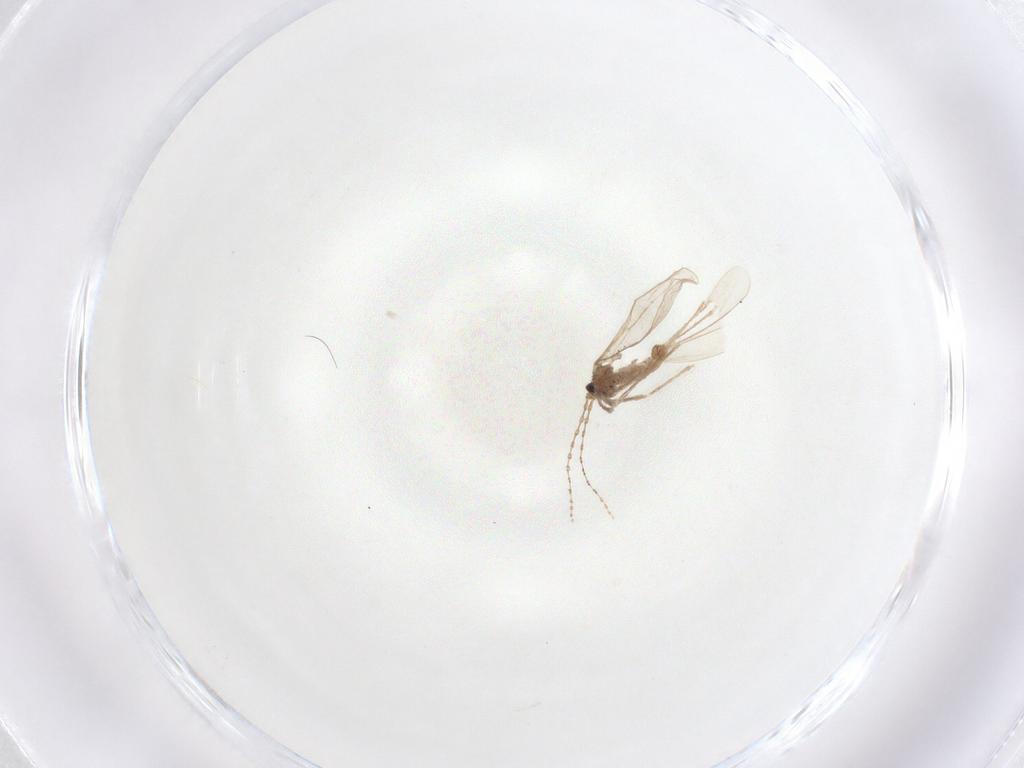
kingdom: Animalia
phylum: Arthropoda
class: Insecta
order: Diptera
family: Cecidomyiidae
